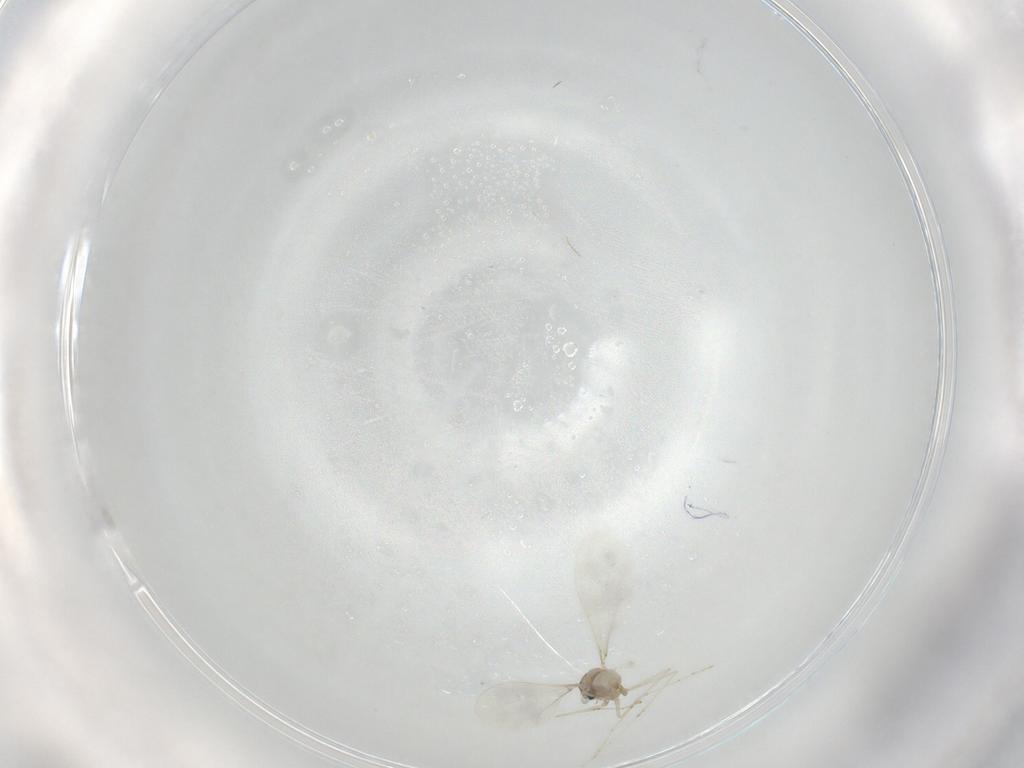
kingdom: Animalia
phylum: Arthropoda
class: Insecta
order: Diptera
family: Cecidomyiidae
